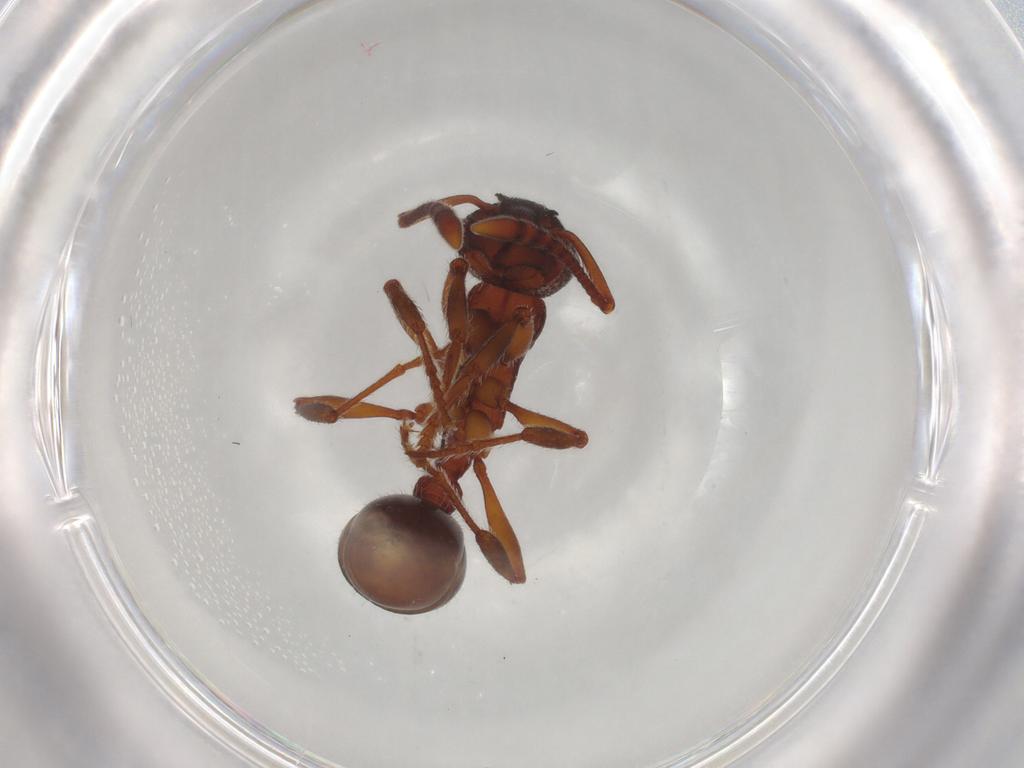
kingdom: Animalia
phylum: Arthropoda
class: Insecta
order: Hymenoptera
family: Formicidae
